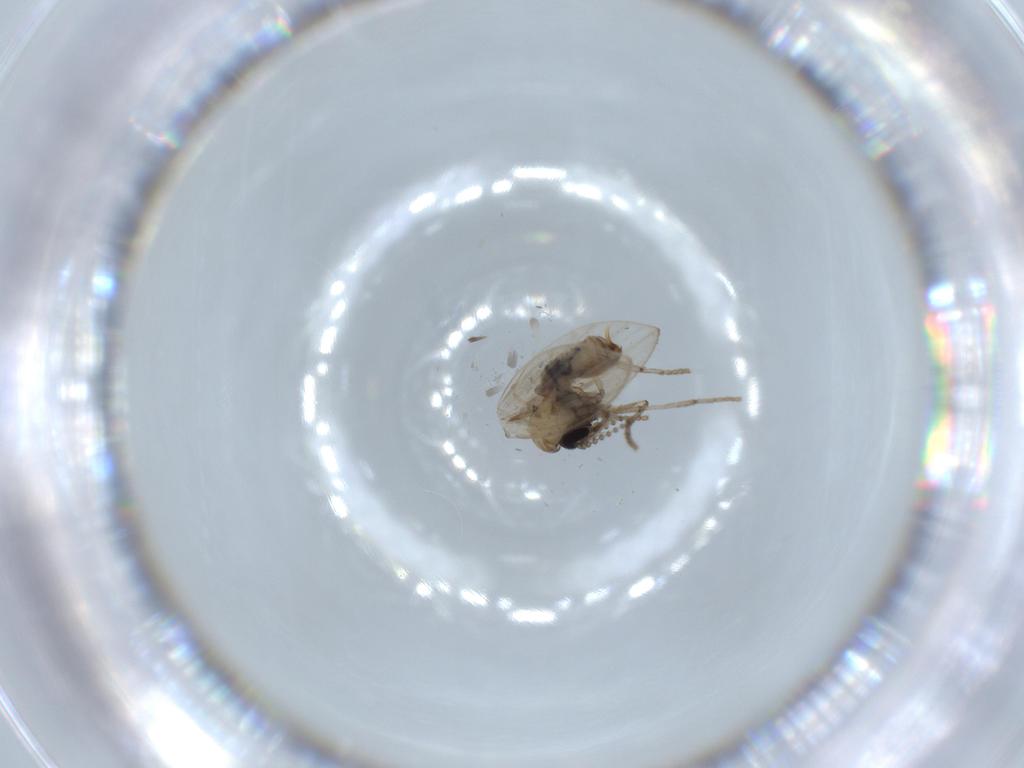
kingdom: Animalia
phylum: Arthropoda
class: Insecta
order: Diptera
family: Psychodidae
